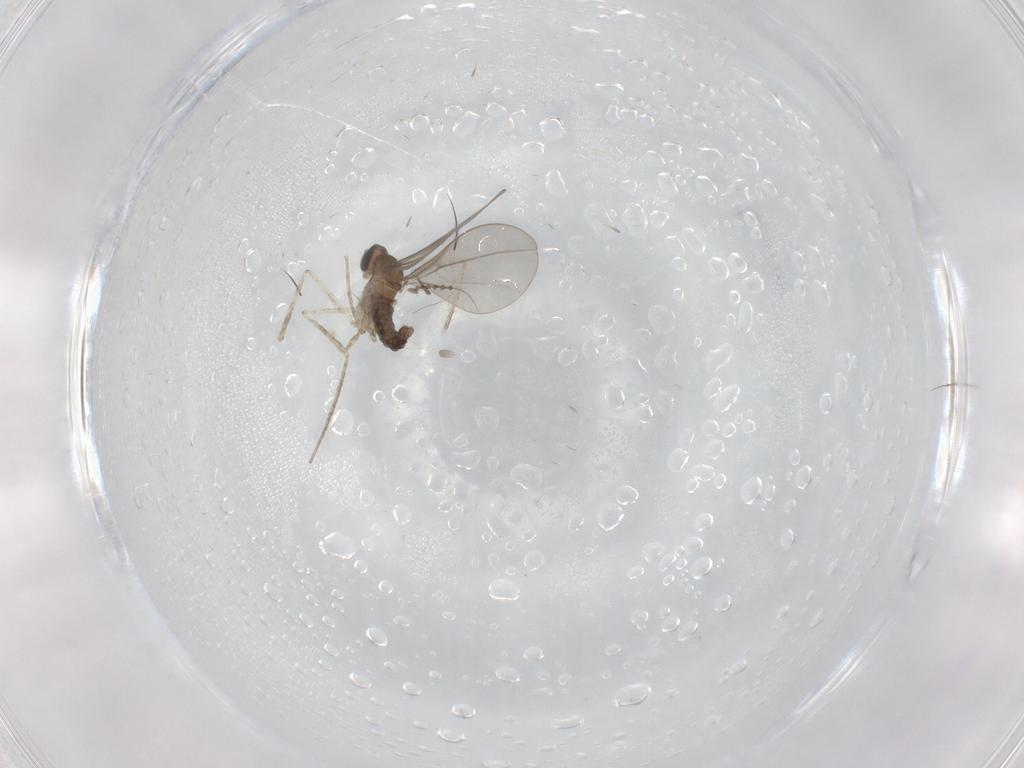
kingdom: Animalia
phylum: Arthropoda
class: Insecta
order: Diptera
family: Cecidomyiidae
